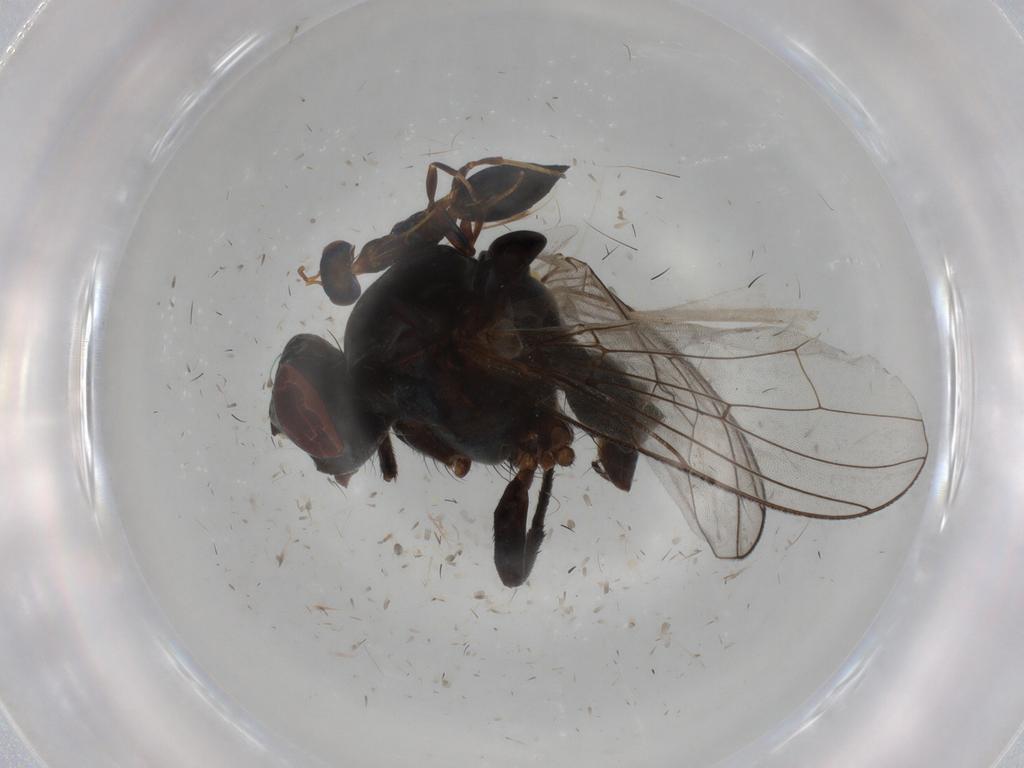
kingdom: Animalia
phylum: Arthropoda
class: Insecta
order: Diptera
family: Anthomyiidae
